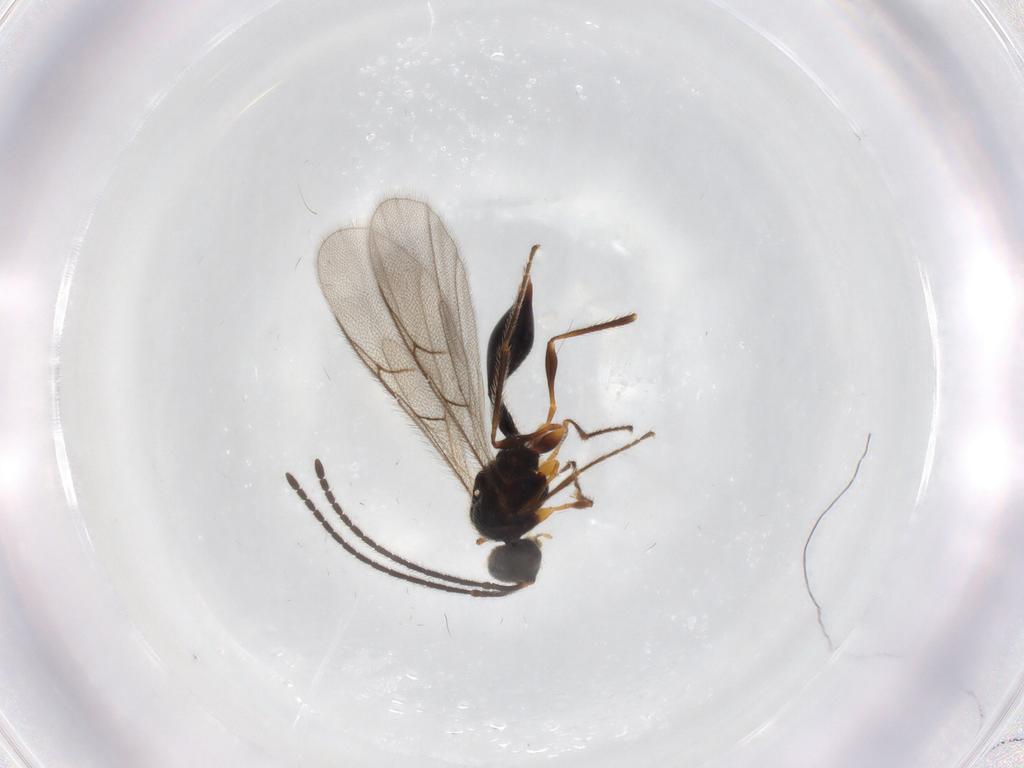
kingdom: Animalia
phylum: Arthropoda
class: Insecta
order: Hymenoptera
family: Diapriidae
